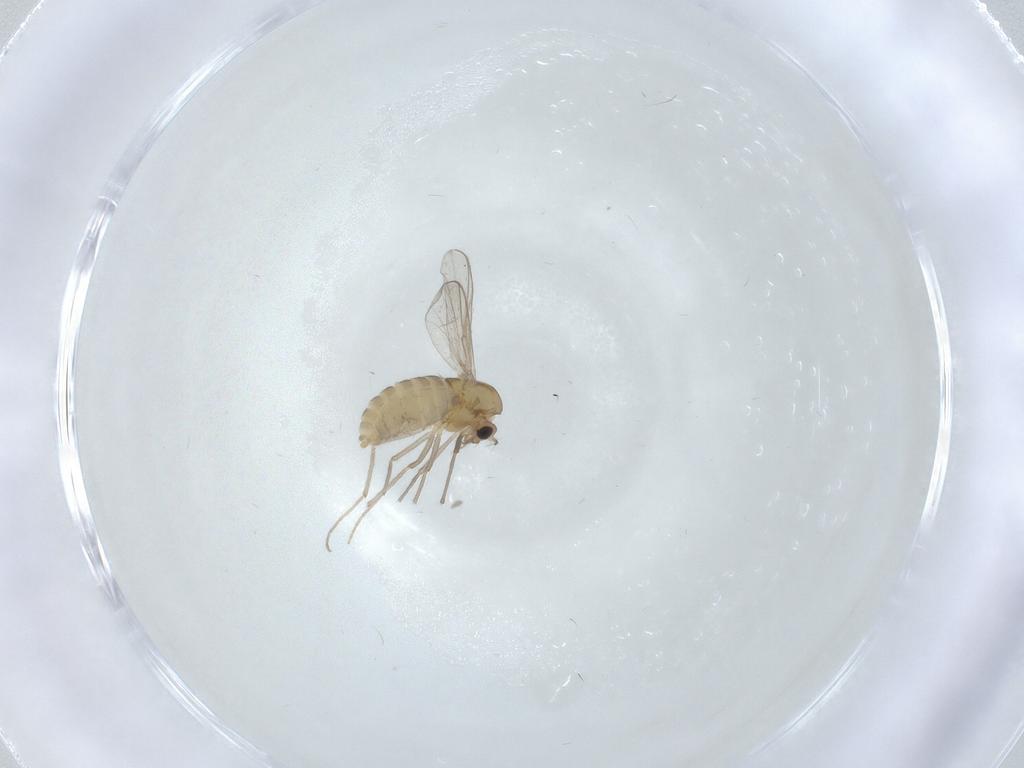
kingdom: Animalia
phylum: Arthropoda
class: Insecta
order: Diptera
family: Chironomidae
